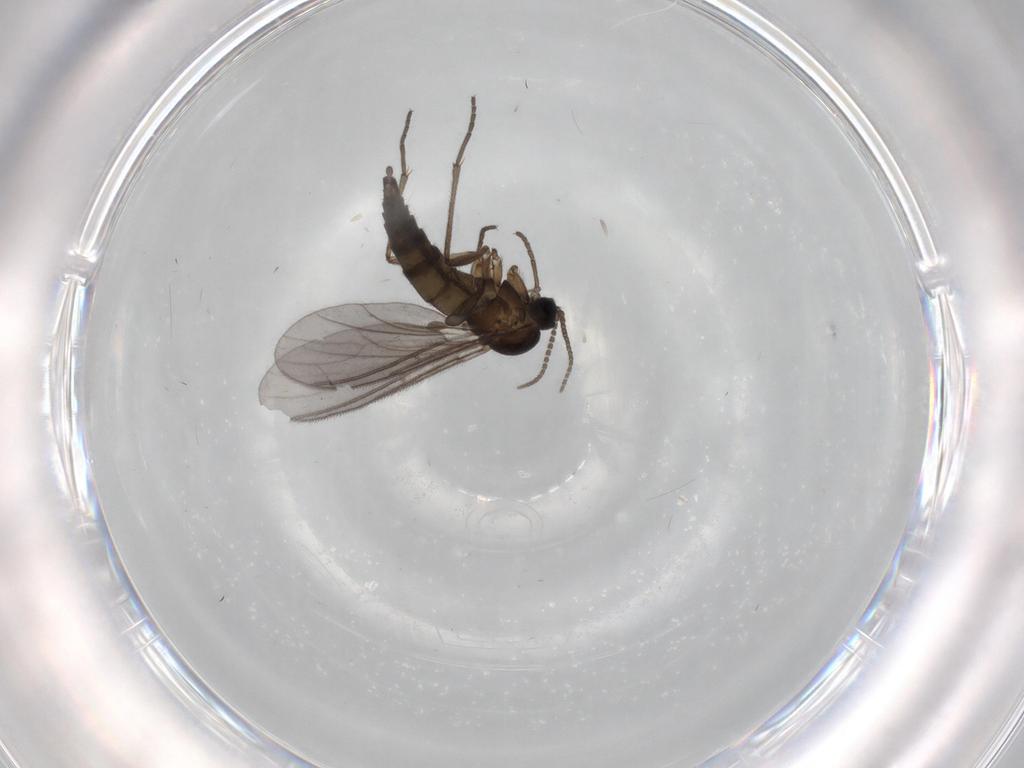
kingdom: Animalia
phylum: Arthropoda
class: Insecta
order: Diptera
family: Sciaridae
